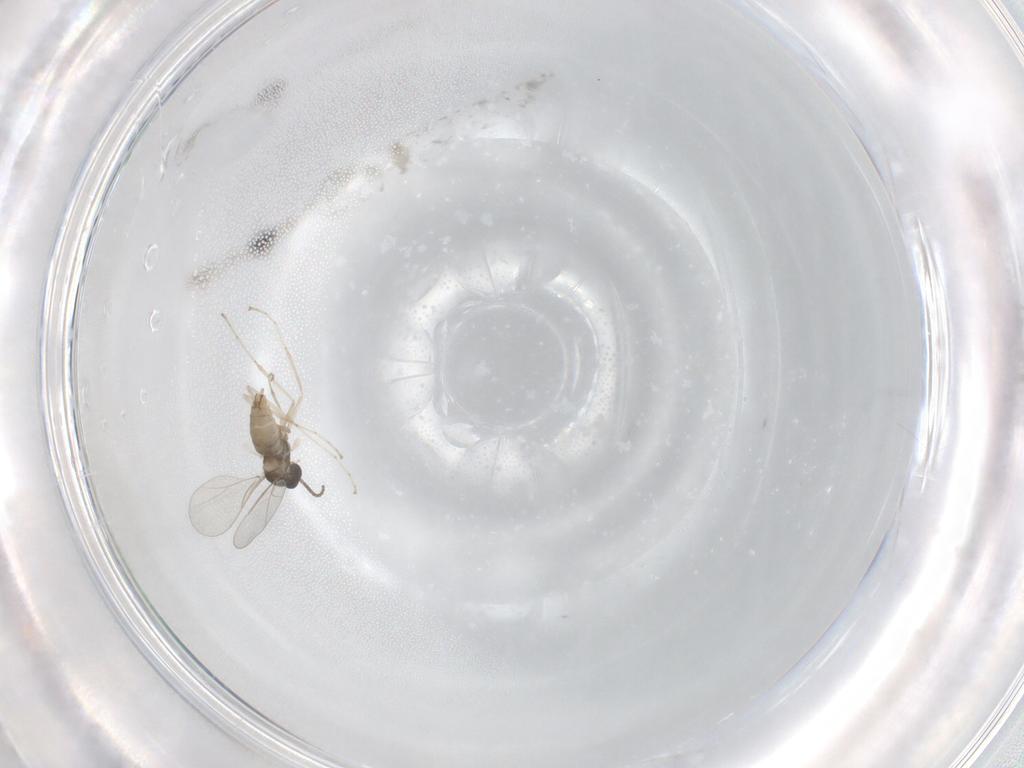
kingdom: Animalia
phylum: Arthropoda
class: Insecta
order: Diptera
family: Cecidomyiidae
